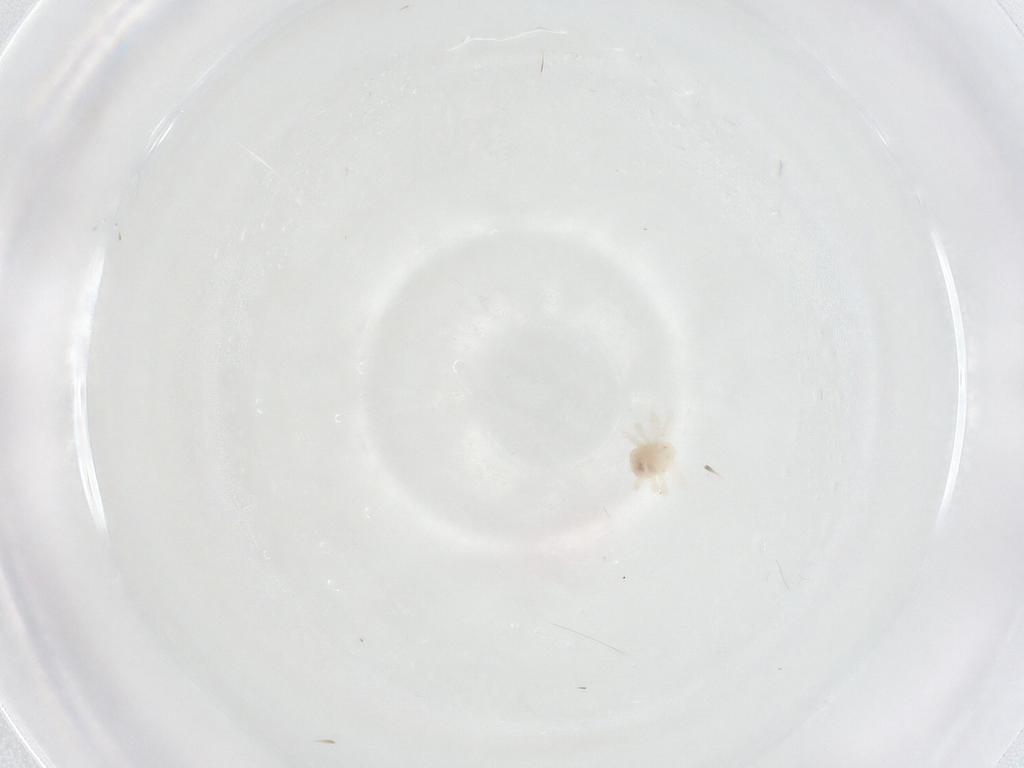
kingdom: Animalia
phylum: Arthropoda
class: Arachnida
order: Trombidiformes
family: Anystidae
